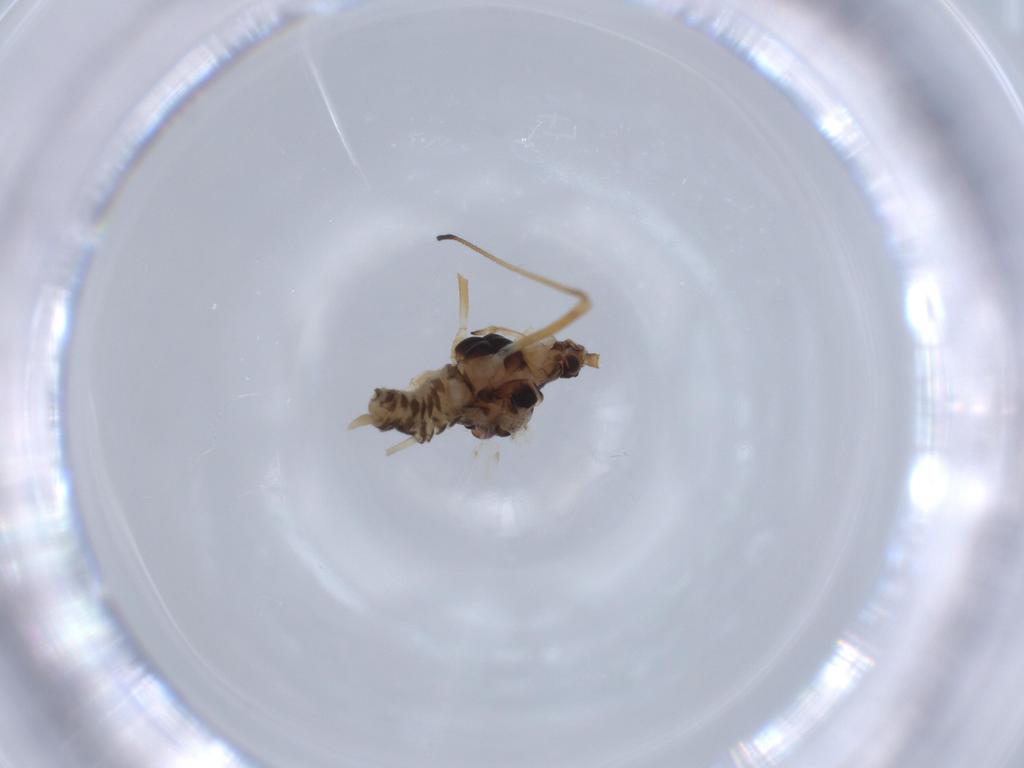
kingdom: Animalia
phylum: Arthropoda
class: Insecta
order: Hemiptera
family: Aphididae
